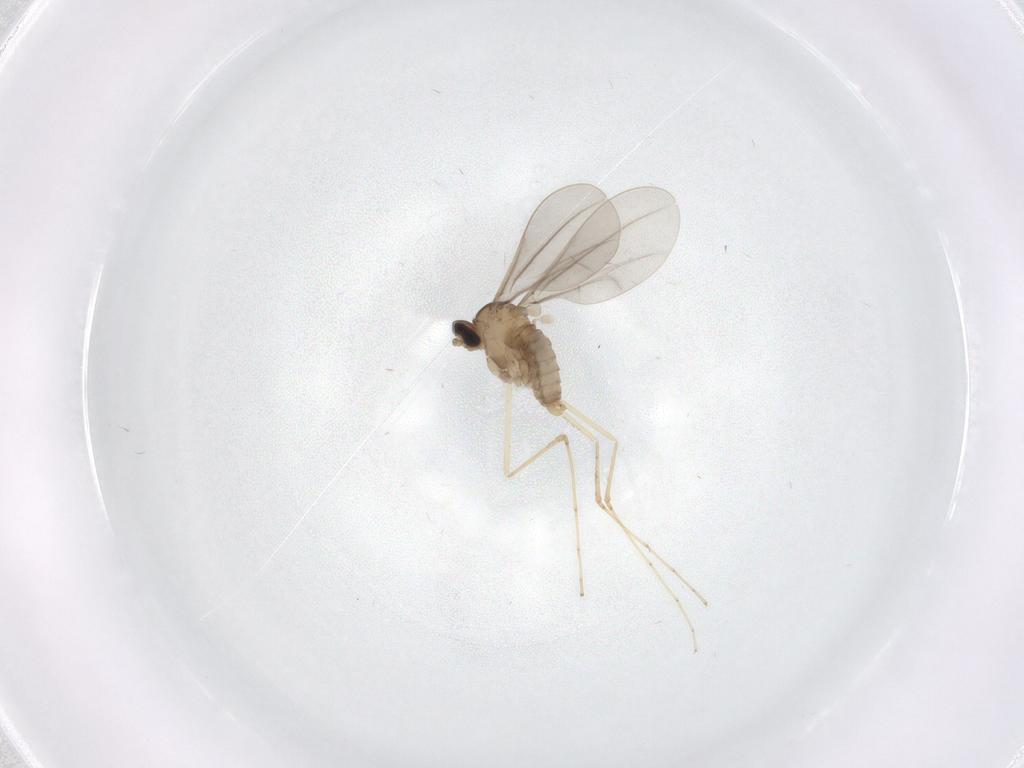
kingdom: Animalia
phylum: Arthropoda
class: Insecta
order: Diptera
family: Cecidomyiidae
